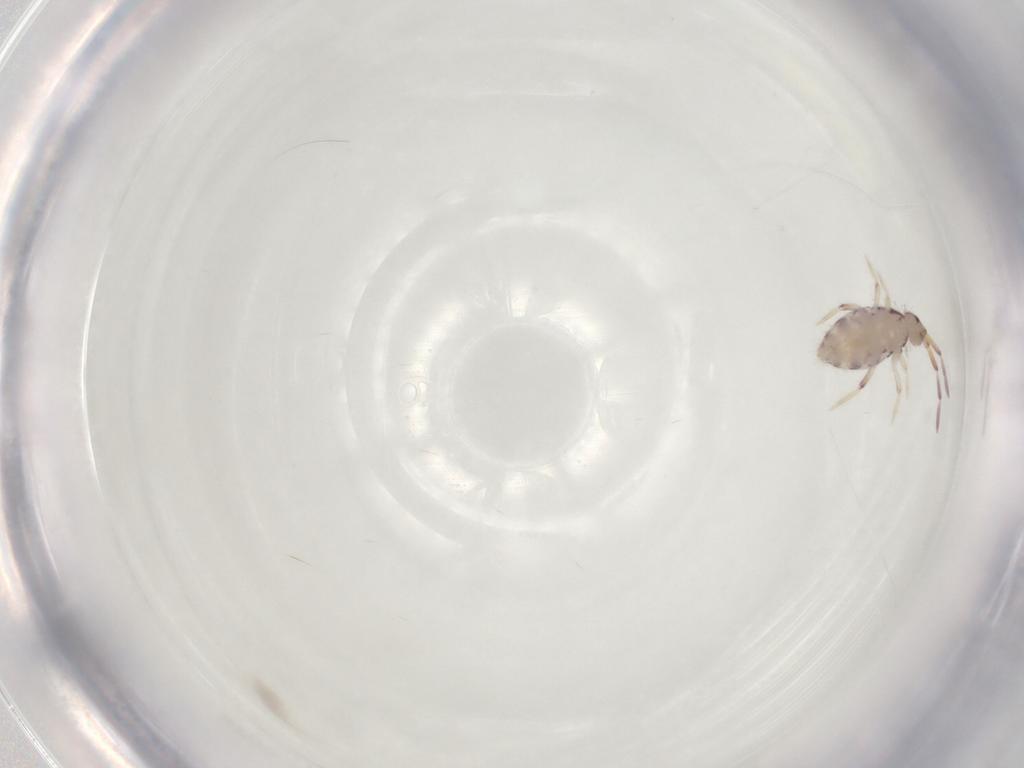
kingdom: Animalia
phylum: Arthropoda
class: Collembola
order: Entomobryomorpha
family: Entomobryidae
